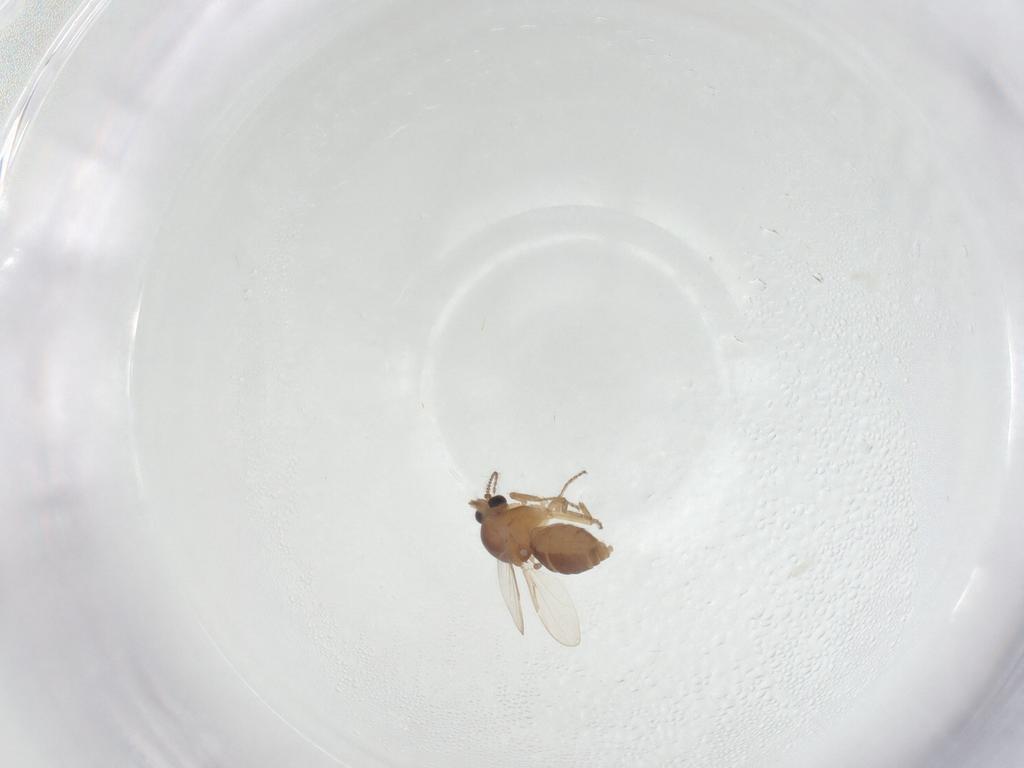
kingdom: Animalia
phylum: Arthropoda
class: Insecta
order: Diptera
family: Ceratopogonidae
